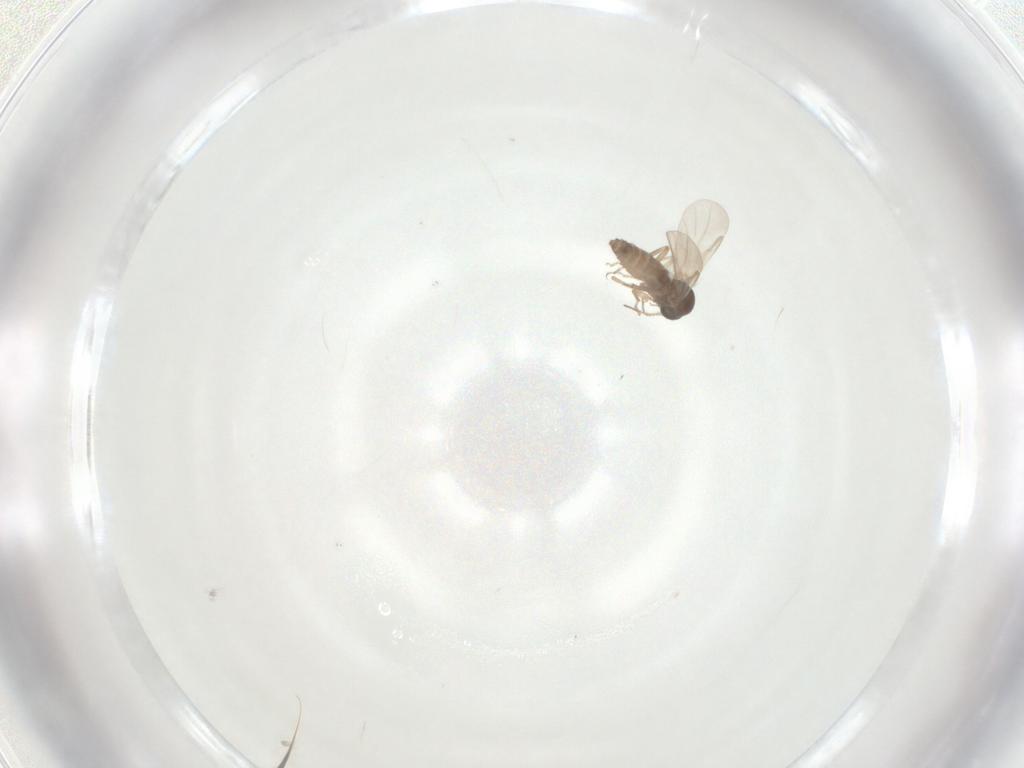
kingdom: Animalia
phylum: Arthropoda
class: Insecta
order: Diptera
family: Ceratopogonidae
